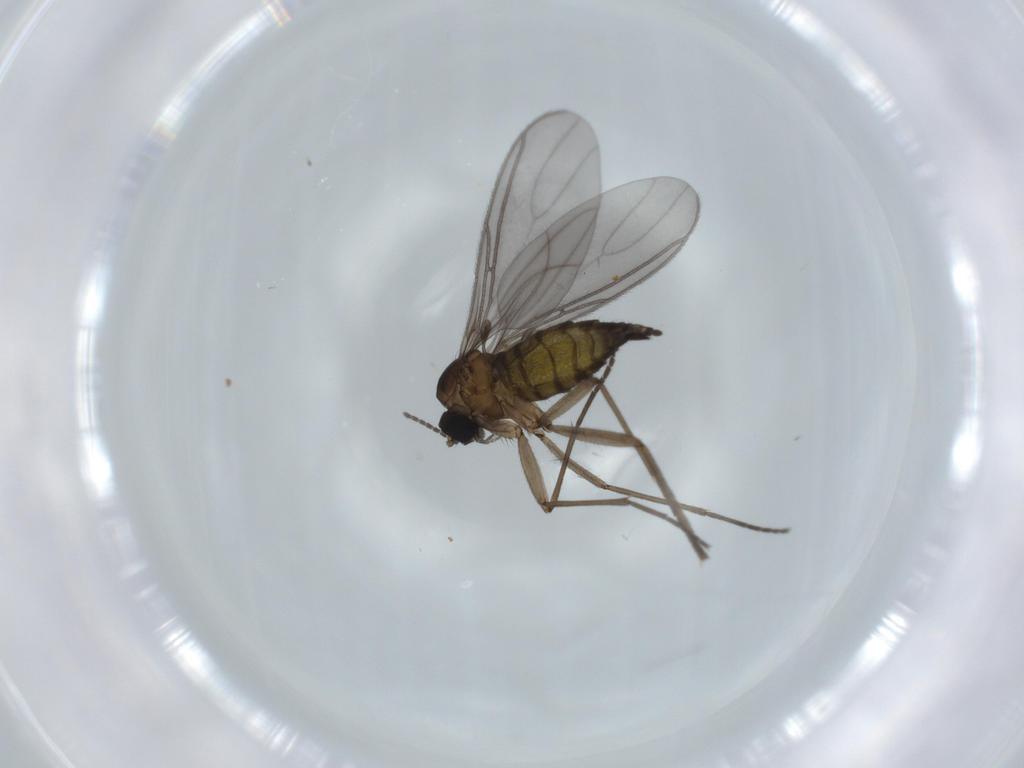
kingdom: Animalia
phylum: Arthropoda
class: Insecta
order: Diptera
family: Sciaridae
